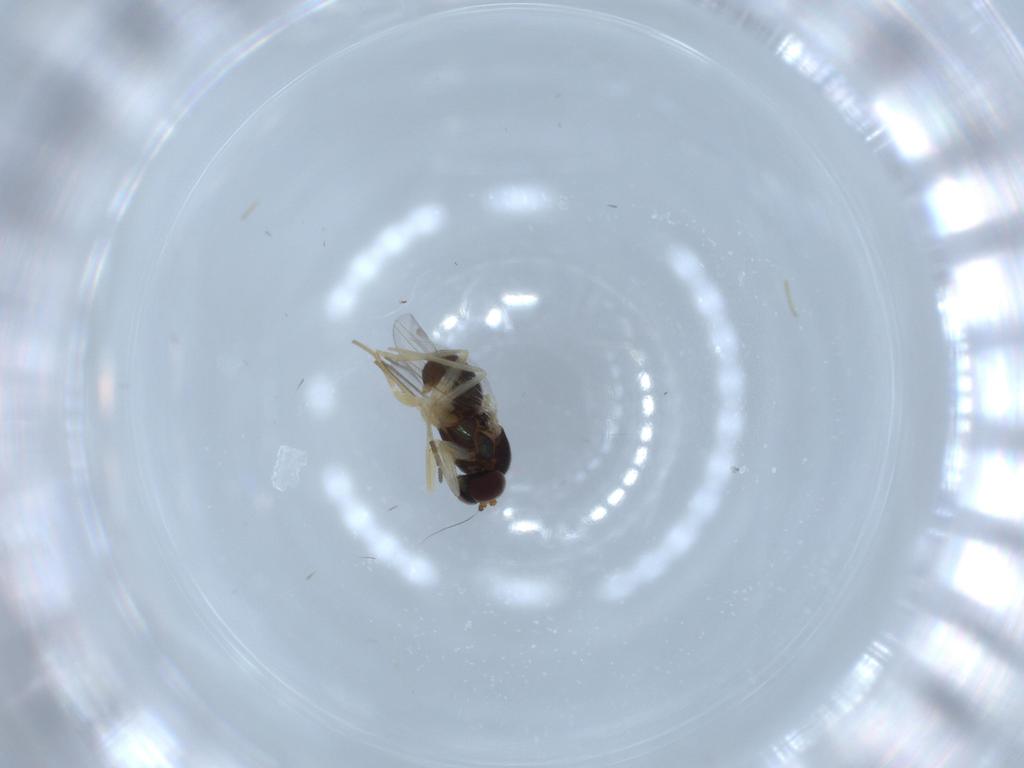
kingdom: Animalia
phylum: Arthropoda
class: Insecta
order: Diptera
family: Dolichopodidae
